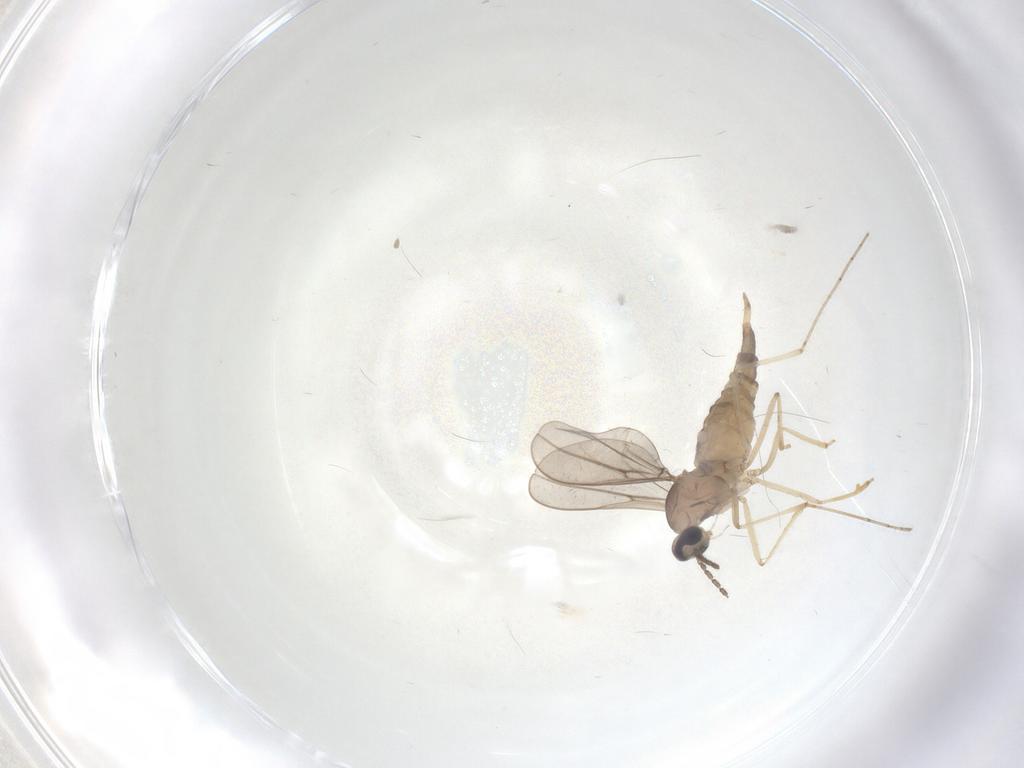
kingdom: Animalia
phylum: Arthropoda
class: Insecta
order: Diptera
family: Cecidomyiidae
